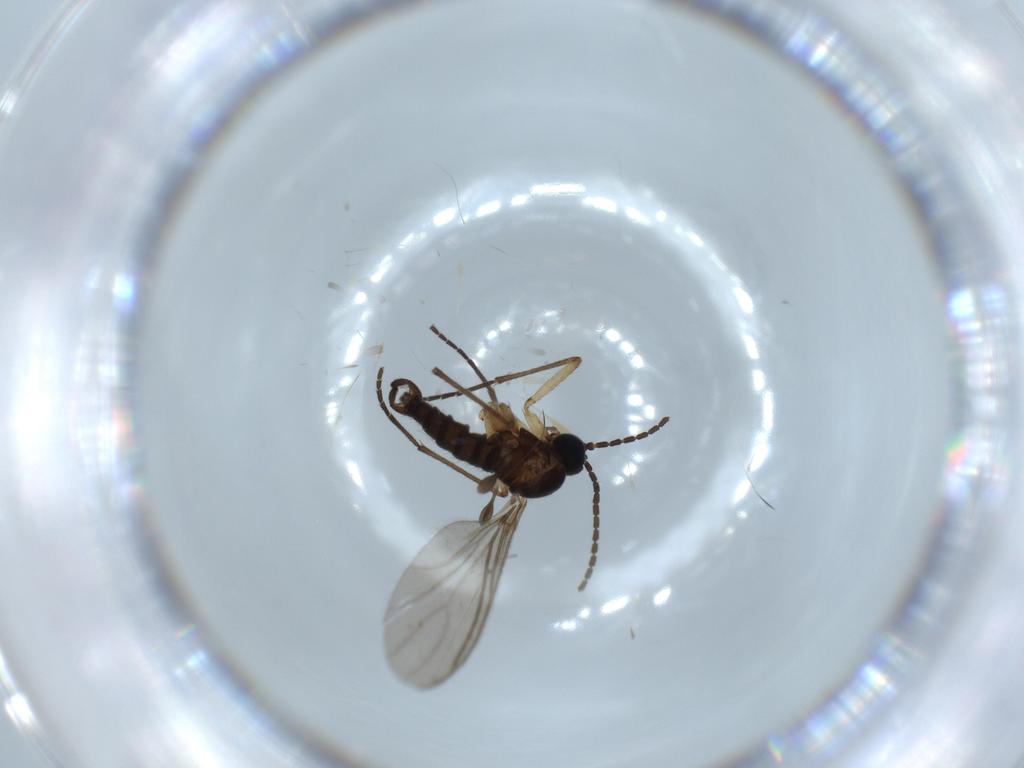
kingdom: Animalia
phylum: Arthropoda
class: Insecta
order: Diptera
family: Sciaridae
